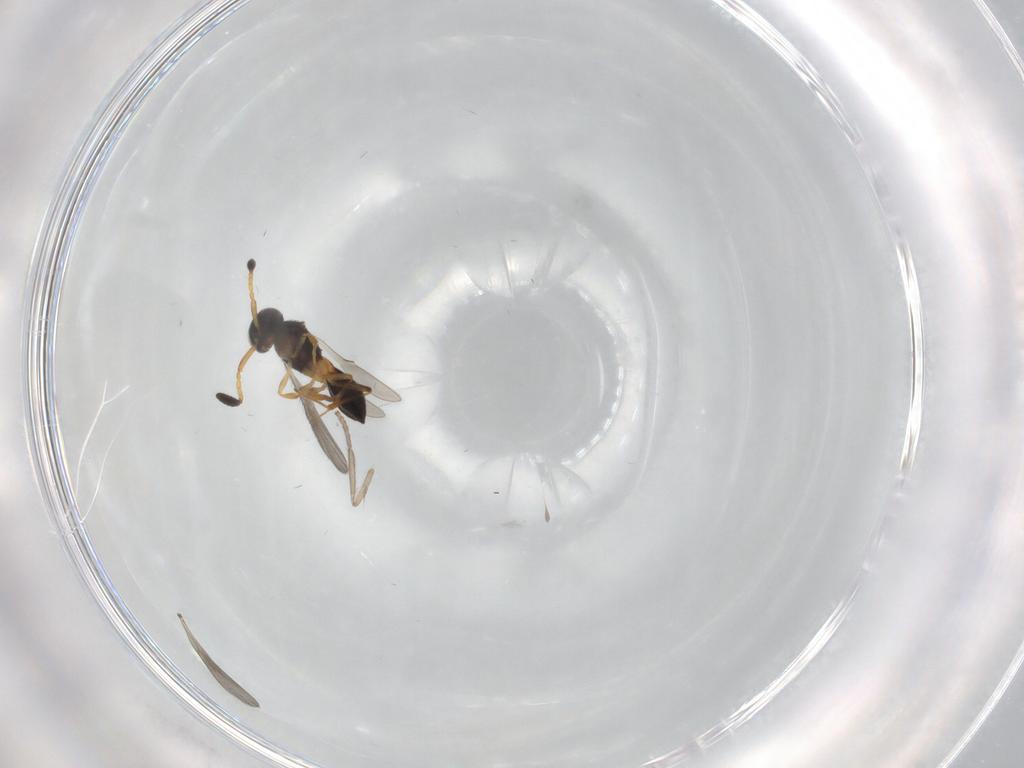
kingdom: Animalia
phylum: Arthropoda
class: Insecta
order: Hymenoptera
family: Scelionidae
